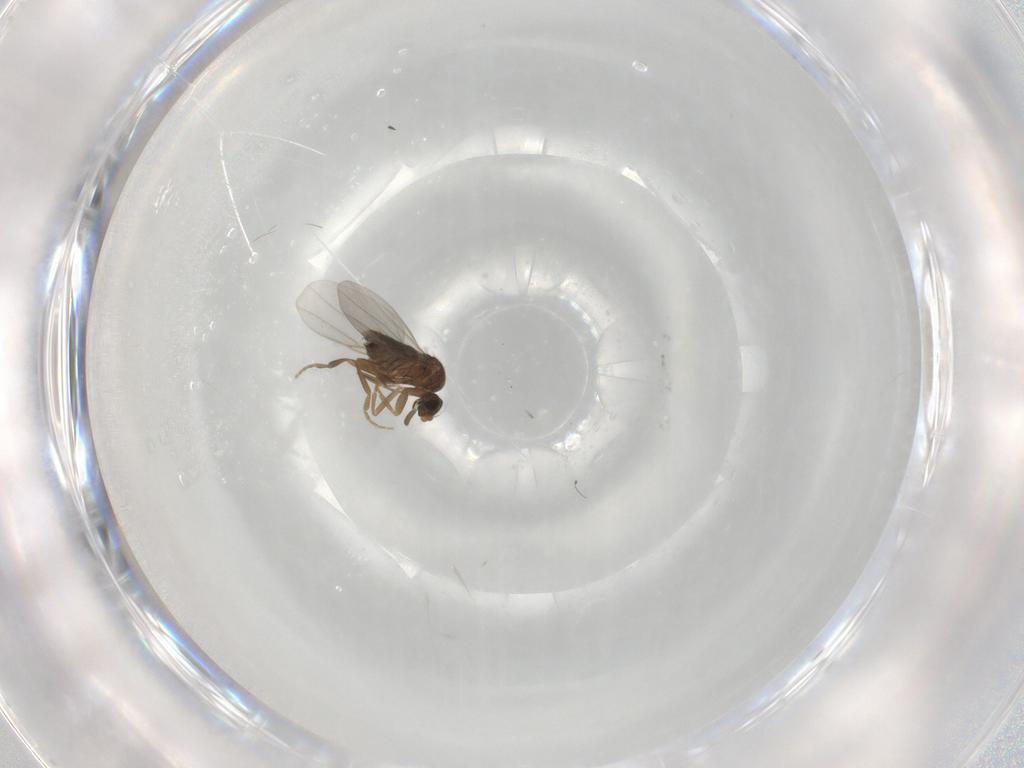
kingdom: Animalia
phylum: Arthropoda
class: Insecta
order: Diptera
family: Phoridae
